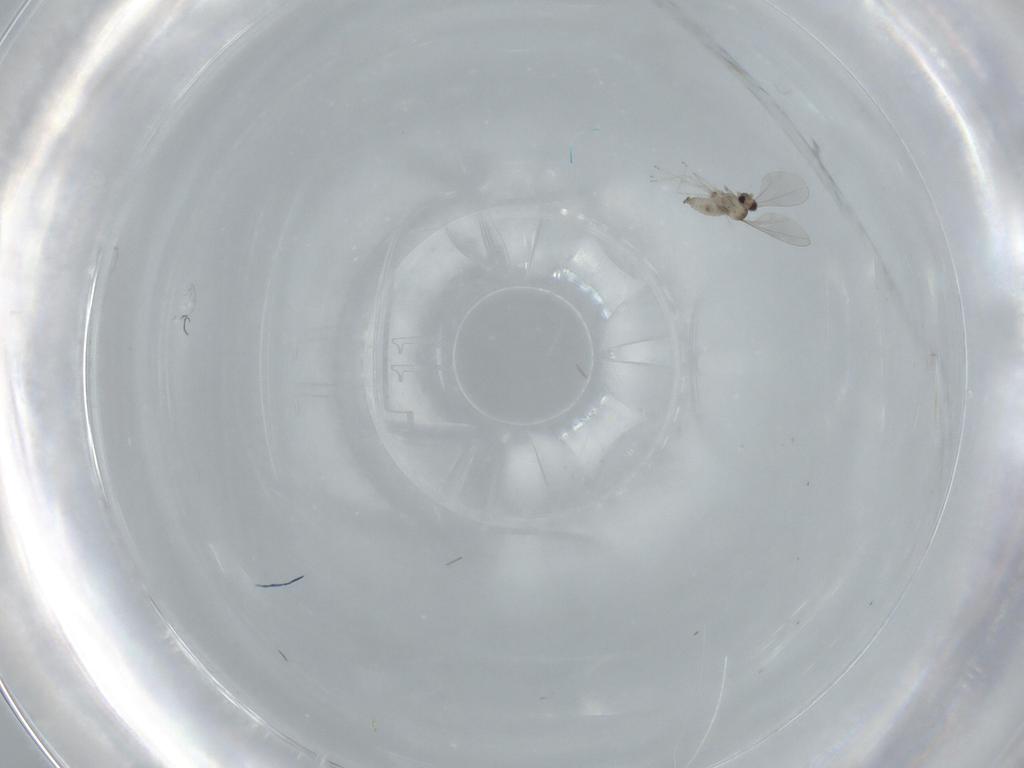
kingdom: Animalia
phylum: Arthropoda
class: Insecta
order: Diptera
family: Cecidomyiidae
